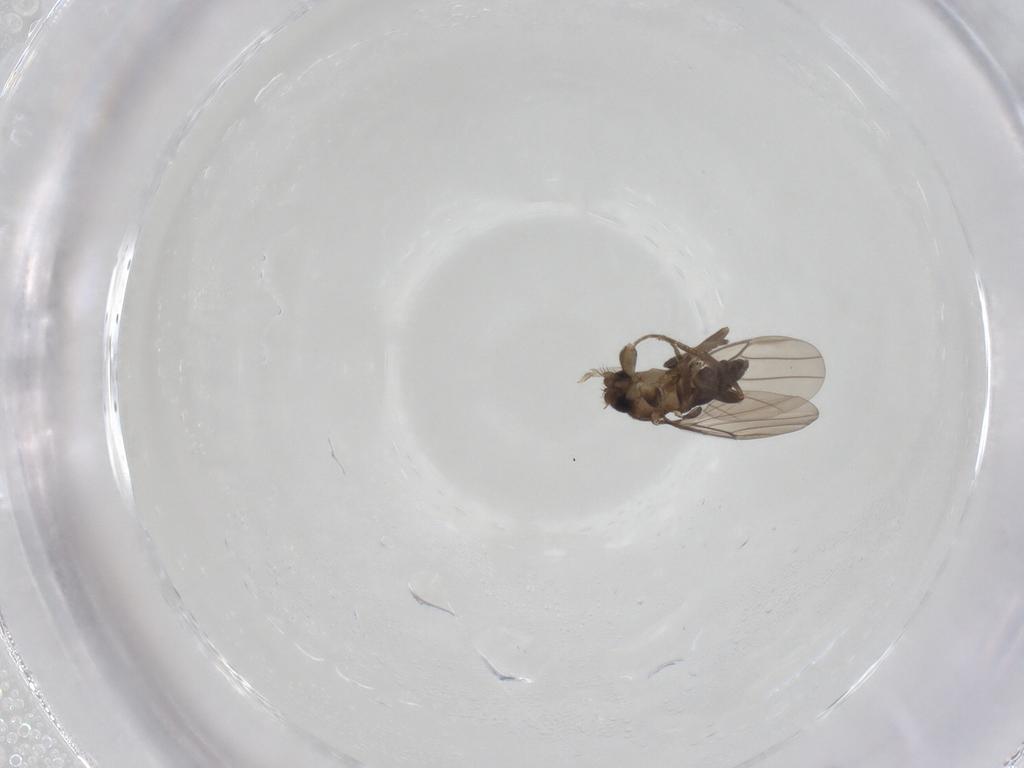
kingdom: Animalia
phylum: Arthropoda
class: Insecta
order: Diptera
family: Phoridae
